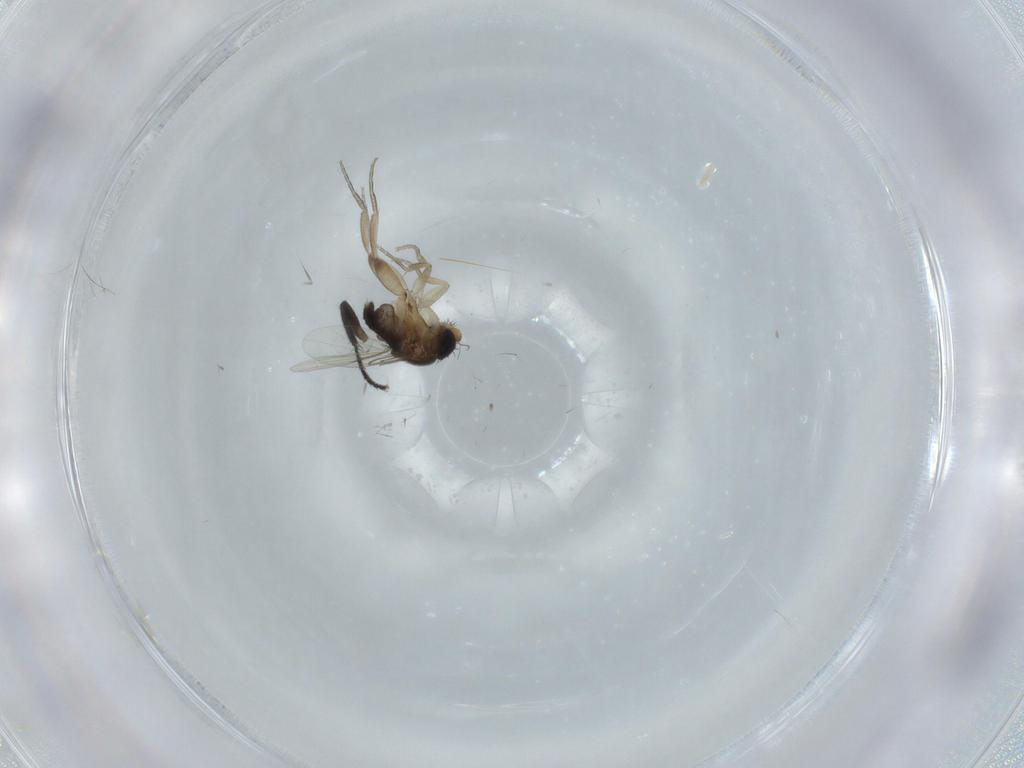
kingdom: Animalia
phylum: Arthropoda
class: Insecta
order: Diptera
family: Phoridae
